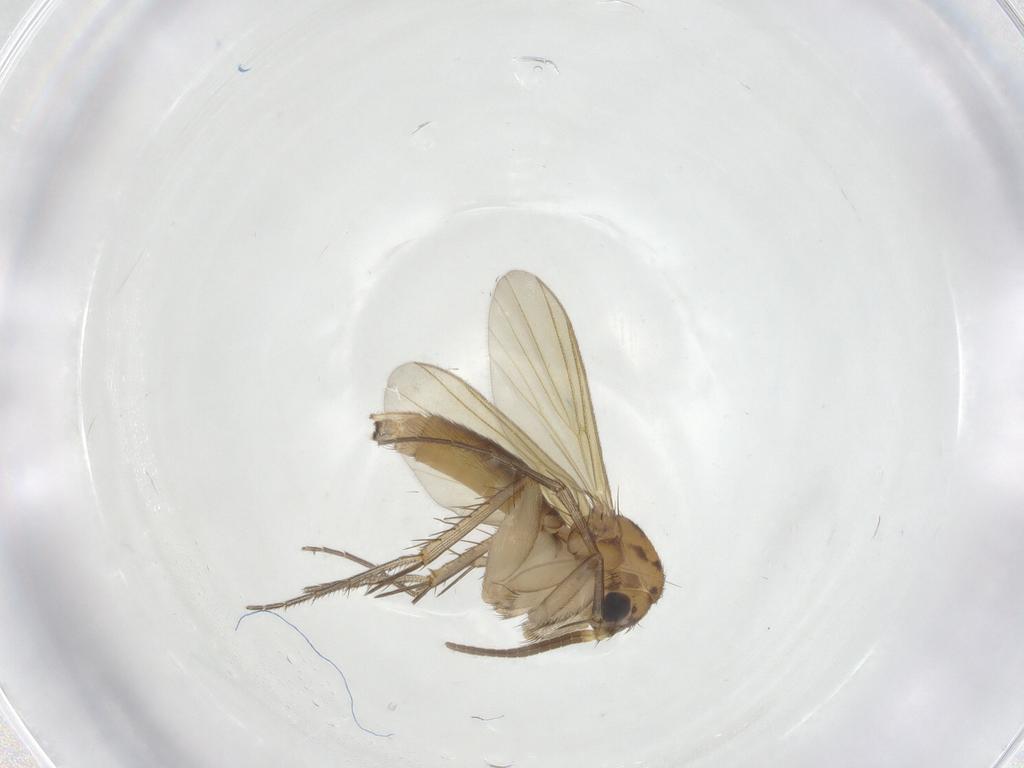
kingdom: Animalia
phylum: Arthropoda
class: Insecta
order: Diptera
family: Mycetophilidae
